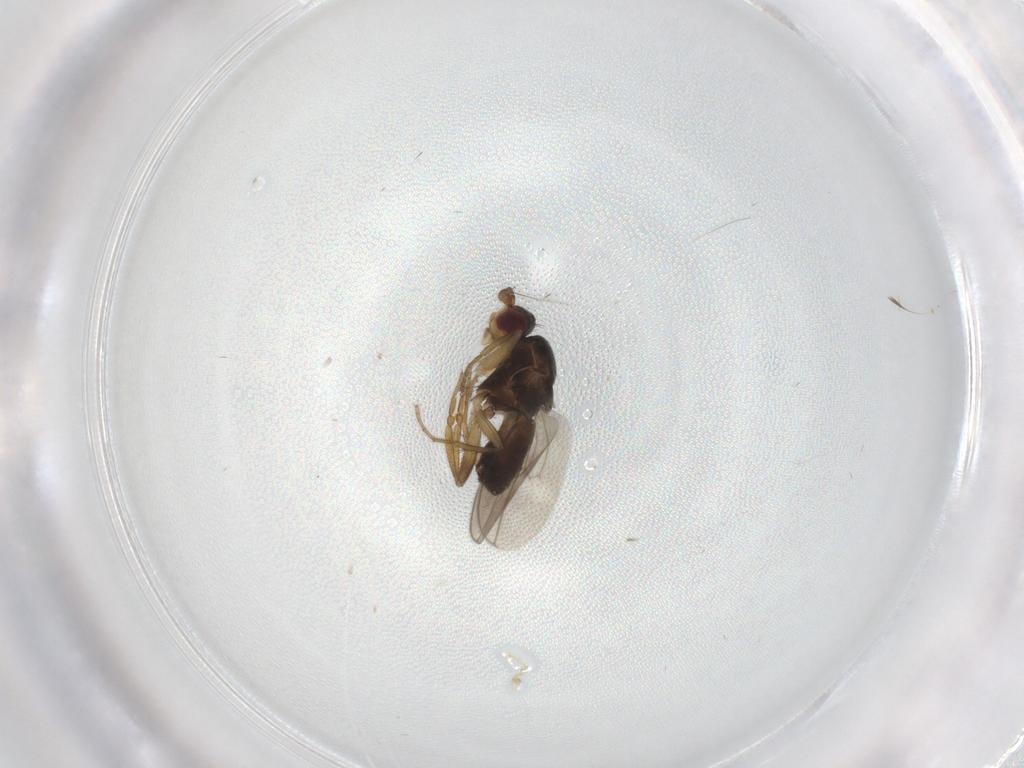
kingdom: Animalia
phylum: Arthropoda
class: Insecta
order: Diptera
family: Sphaeroceridae
